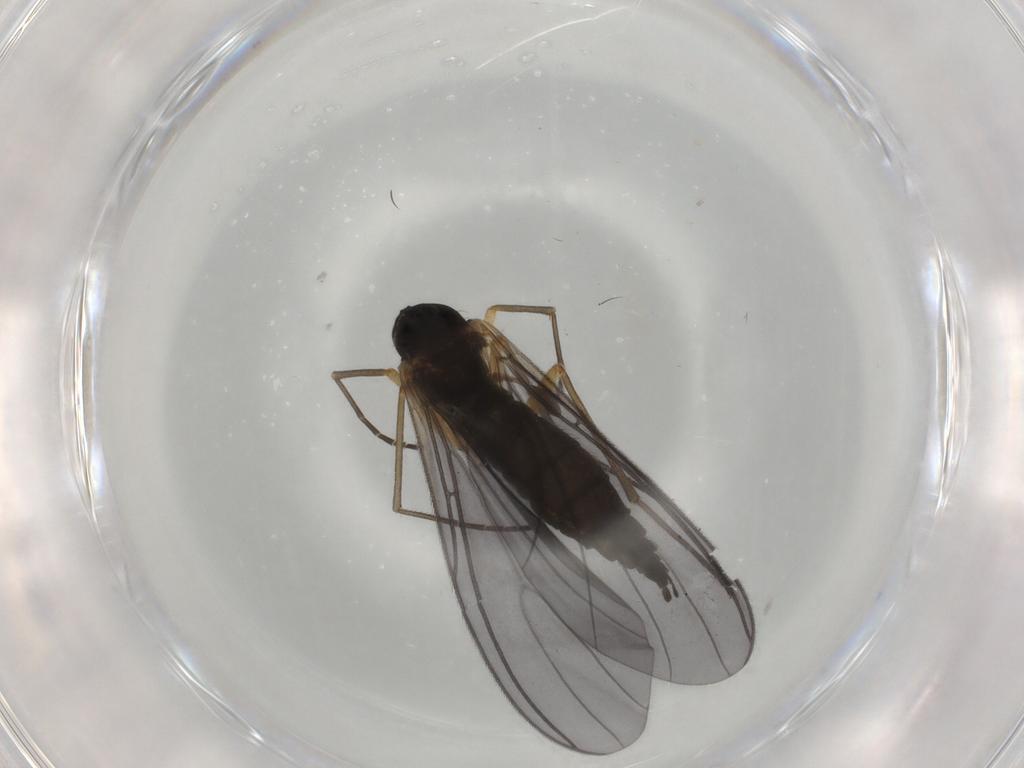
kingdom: Animalia
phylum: Arthropoda
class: Insecta
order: Diptera
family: Sciaridae
